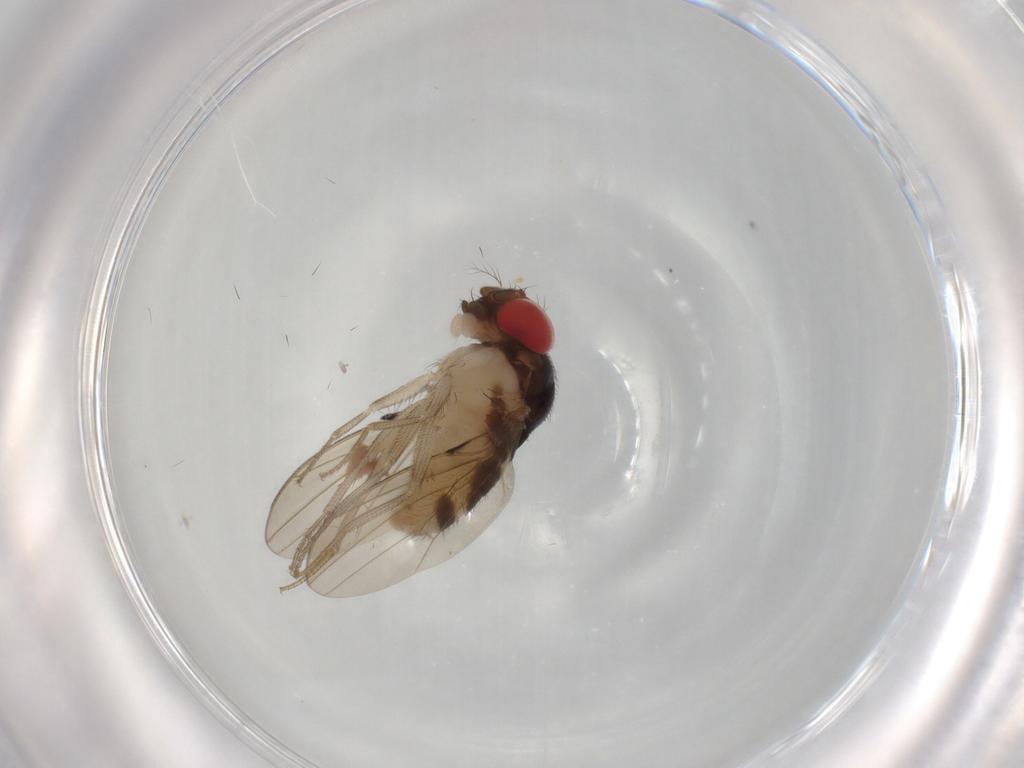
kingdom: Animalia
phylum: Arthropoda
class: Insecta
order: Diptera
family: Drosophilidae
